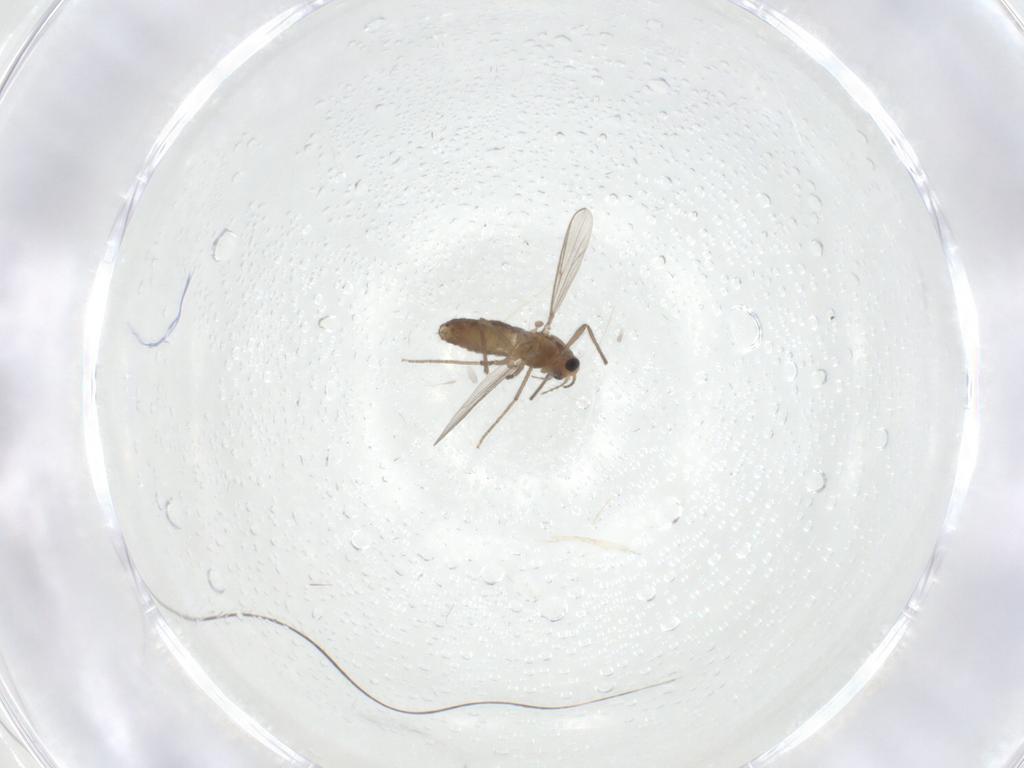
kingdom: Animalia
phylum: Arthropoda
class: Insecta
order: Diptera
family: Limoniidae
